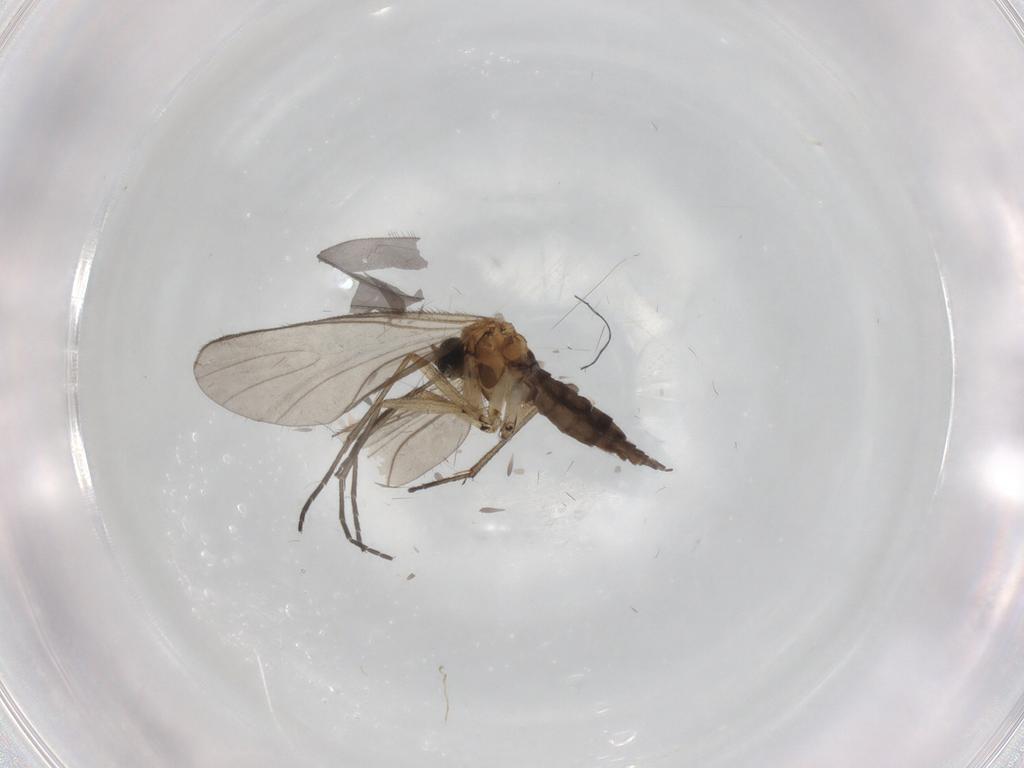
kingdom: Animalia
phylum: Arthropoda
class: Insecta
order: Diptera
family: Sciaridae
